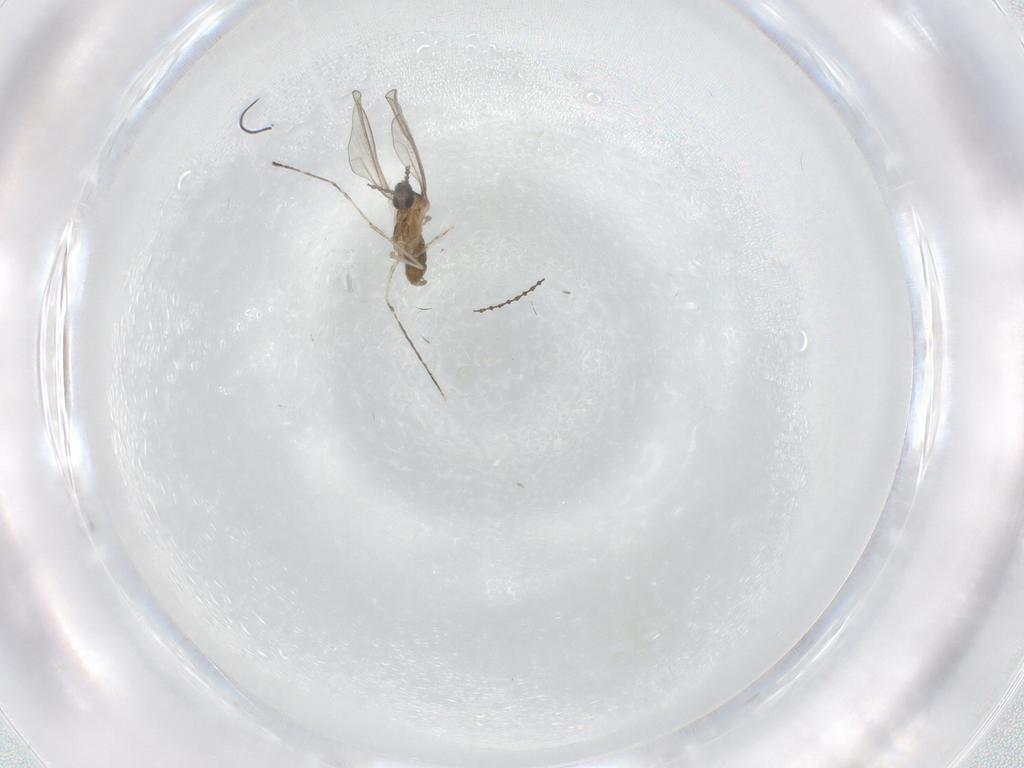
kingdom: Animalia
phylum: Arthropoda
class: Insecta
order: Diptera
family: Cecidomyiidae
